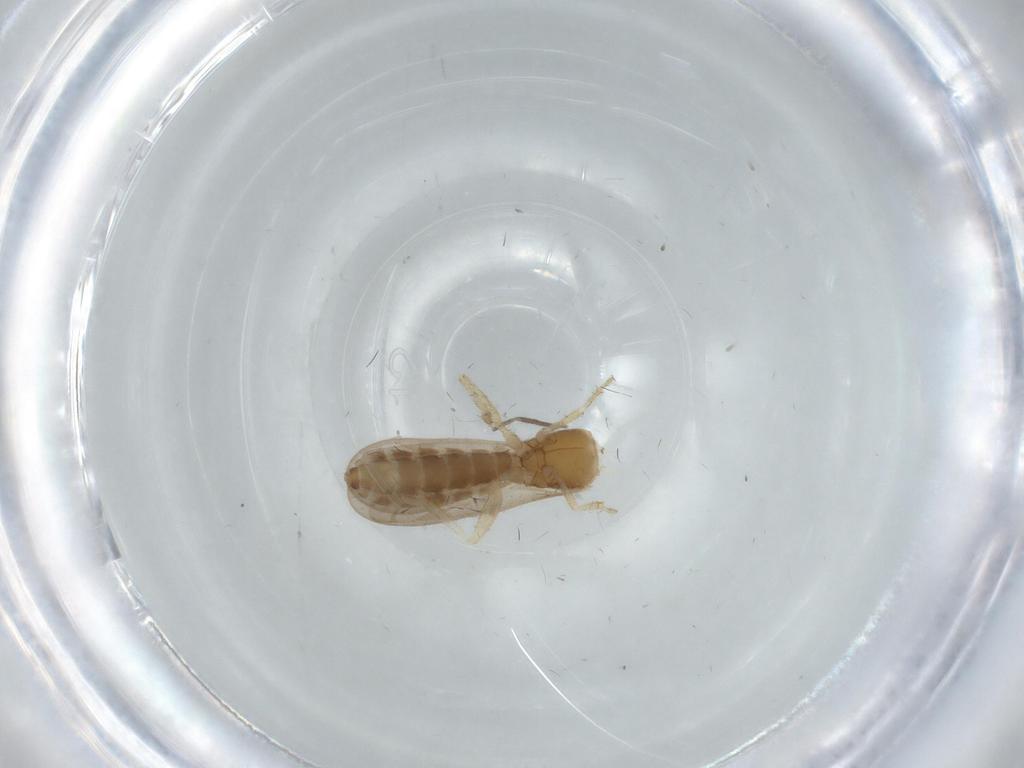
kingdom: Animalia
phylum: Arthropoda
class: Insecta
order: Hemiptera
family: Enicocephalidae
